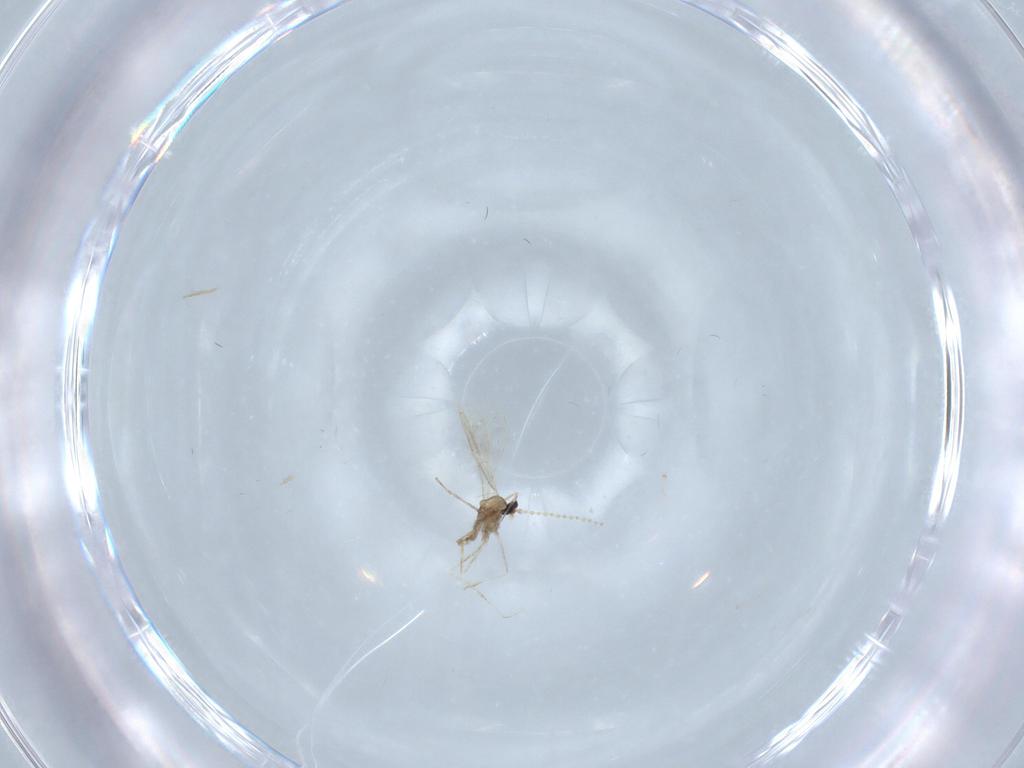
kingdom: Animalia
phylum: Arthropoda
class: Insecta
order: Diptera
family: Cecidomyiidae
